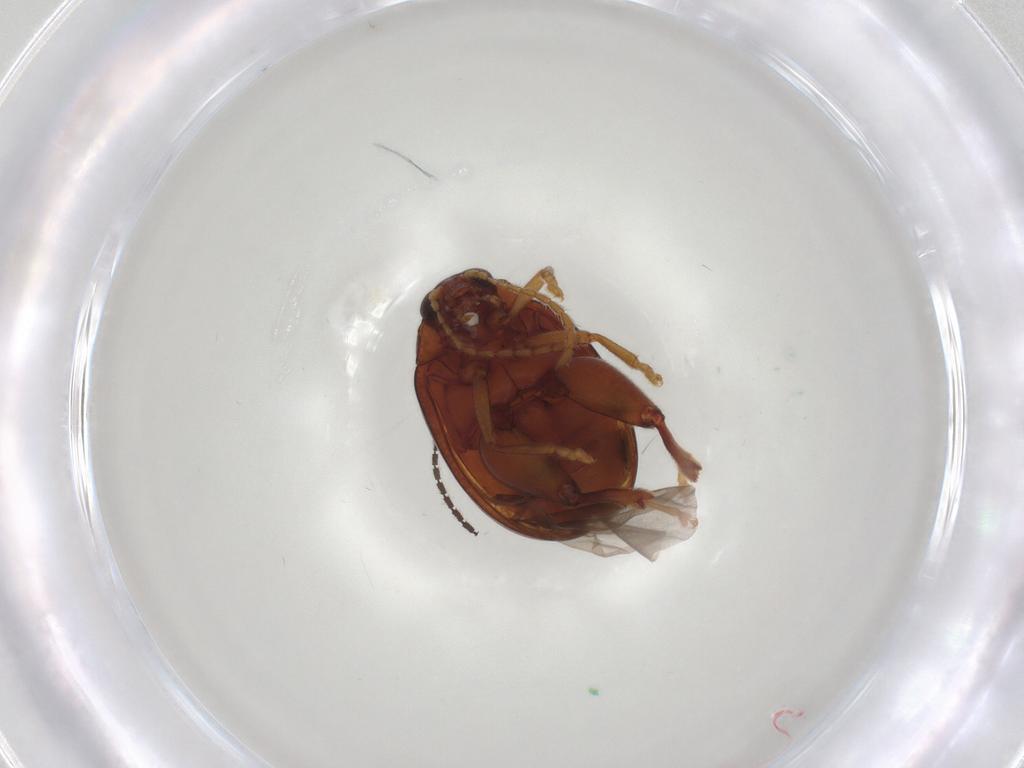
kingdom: Animalia
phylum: Arthropoda
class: Insecta
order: Coleoptera
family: Chrysomelidae
